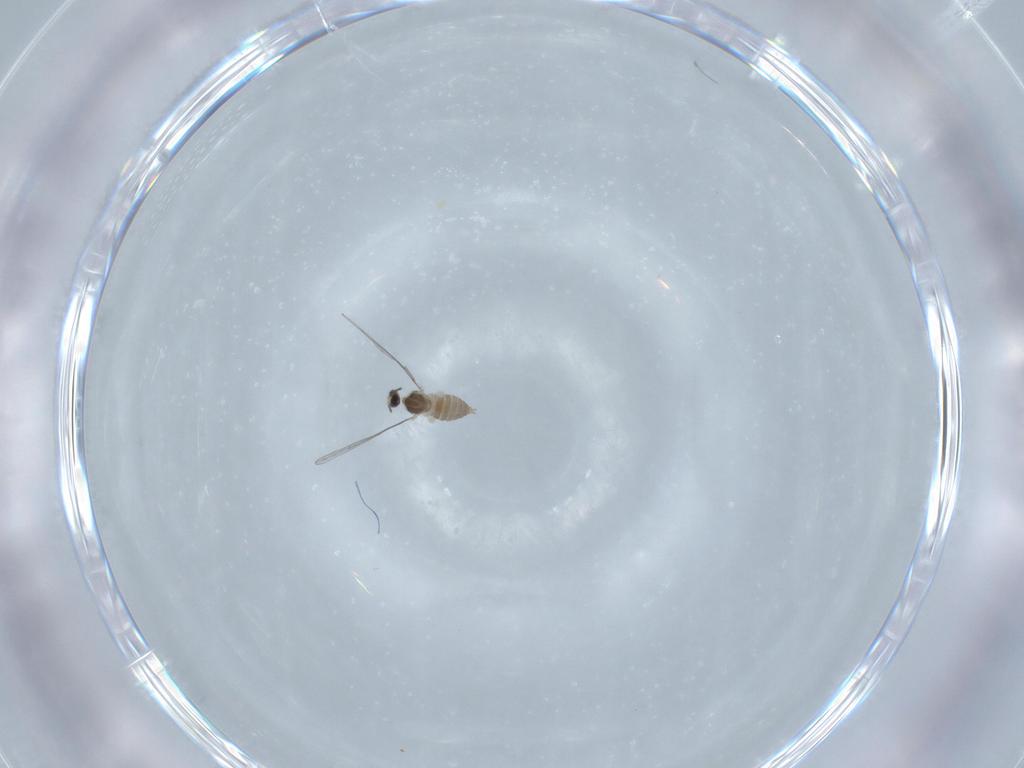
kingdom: Animalia
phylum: Arthropoda
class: Insecta
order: Diptera
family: Cecidomyiidae
